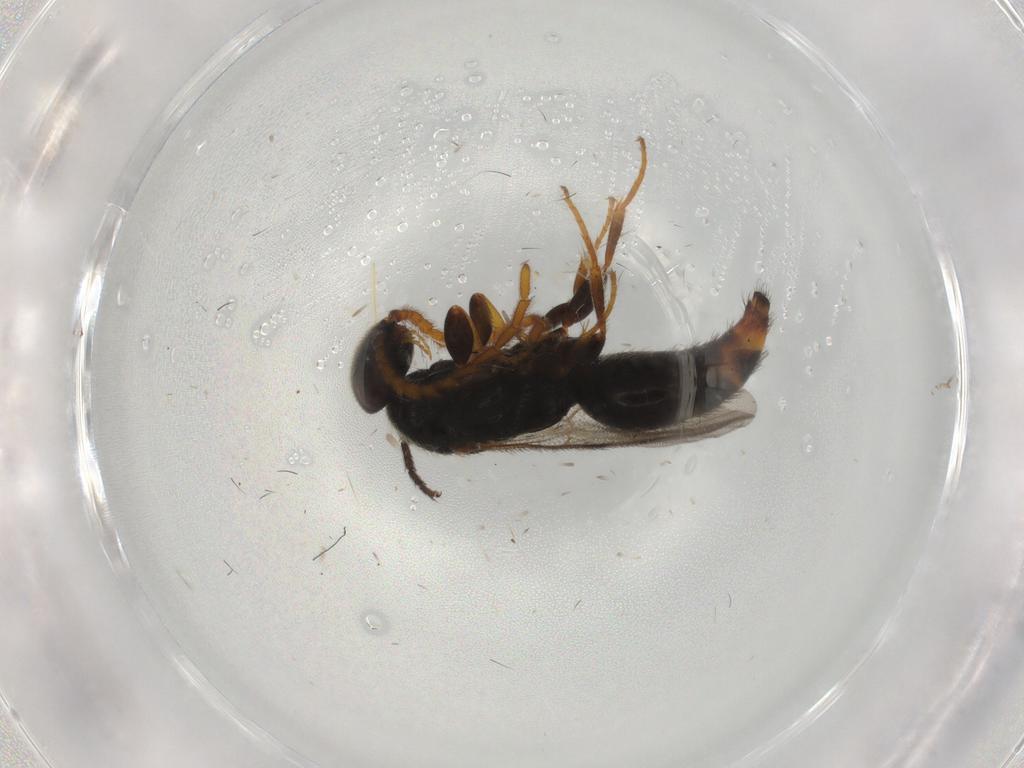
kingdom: Animalia
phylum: Arthropoda
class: Insecta
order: Hymenoptera
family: Bethylidae
